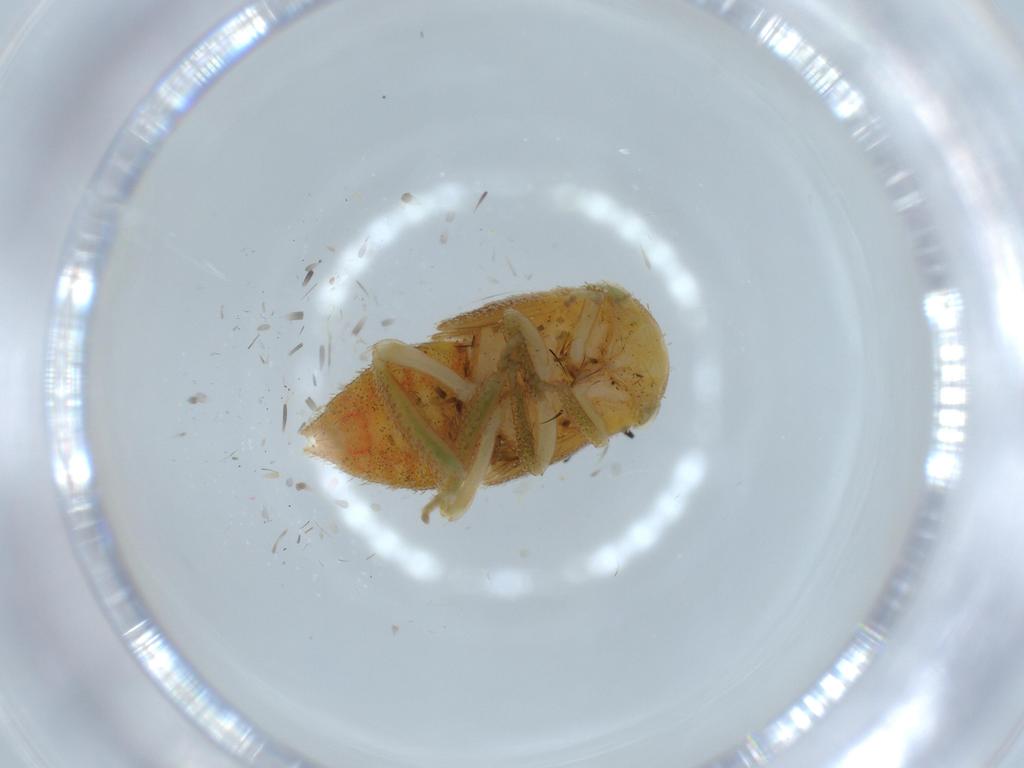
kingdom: Animalia
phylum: Arthropoda
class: Insecta
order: Hemiptera
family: Cicadellidae
